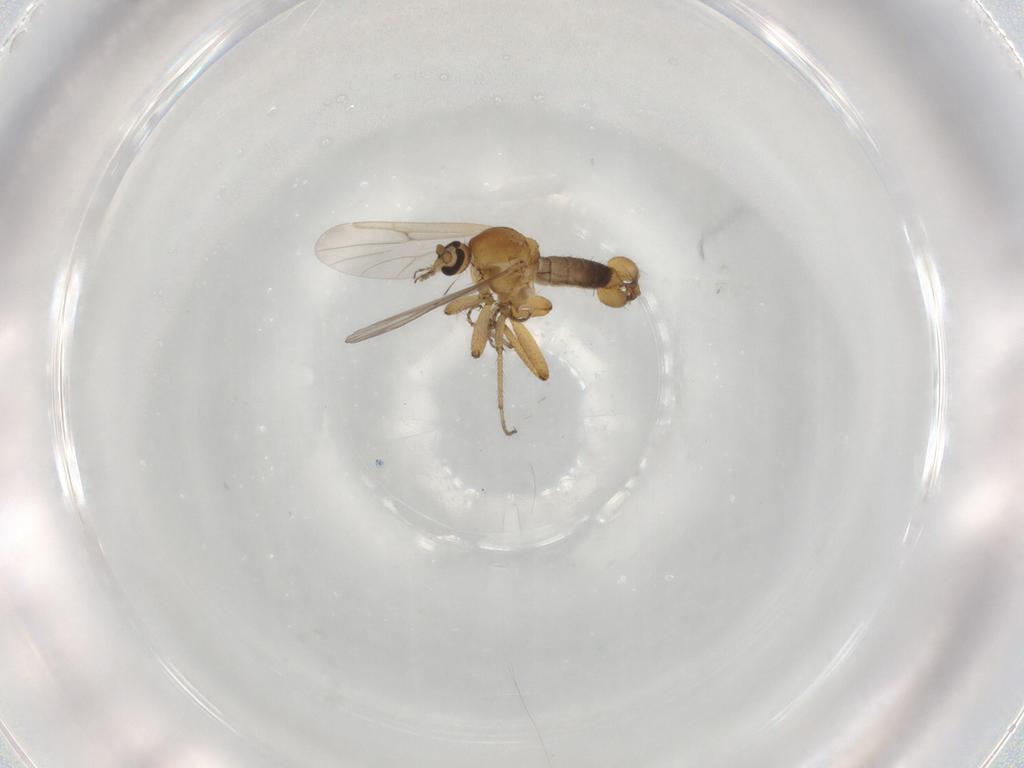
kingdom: Animalia
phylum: Arthropoda
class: Insecta
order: Diptera
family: Ceratopogonidae
